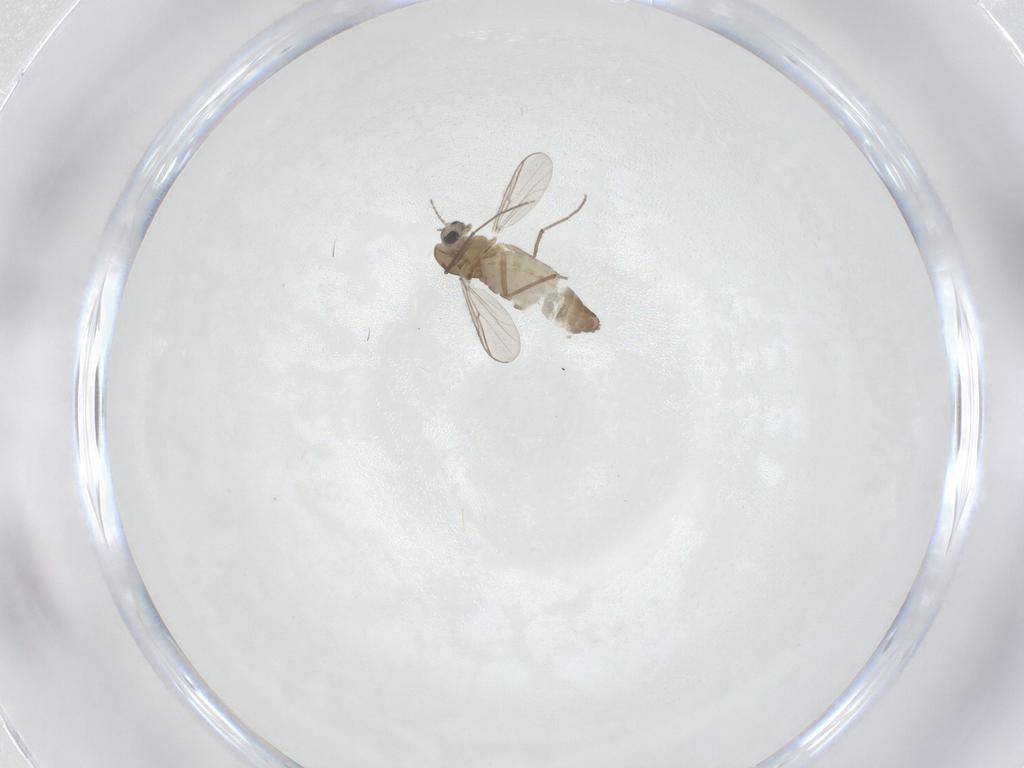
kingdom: Animalia
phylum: Arthropoda
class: Insecta
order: Diptera
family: Chironomidae
